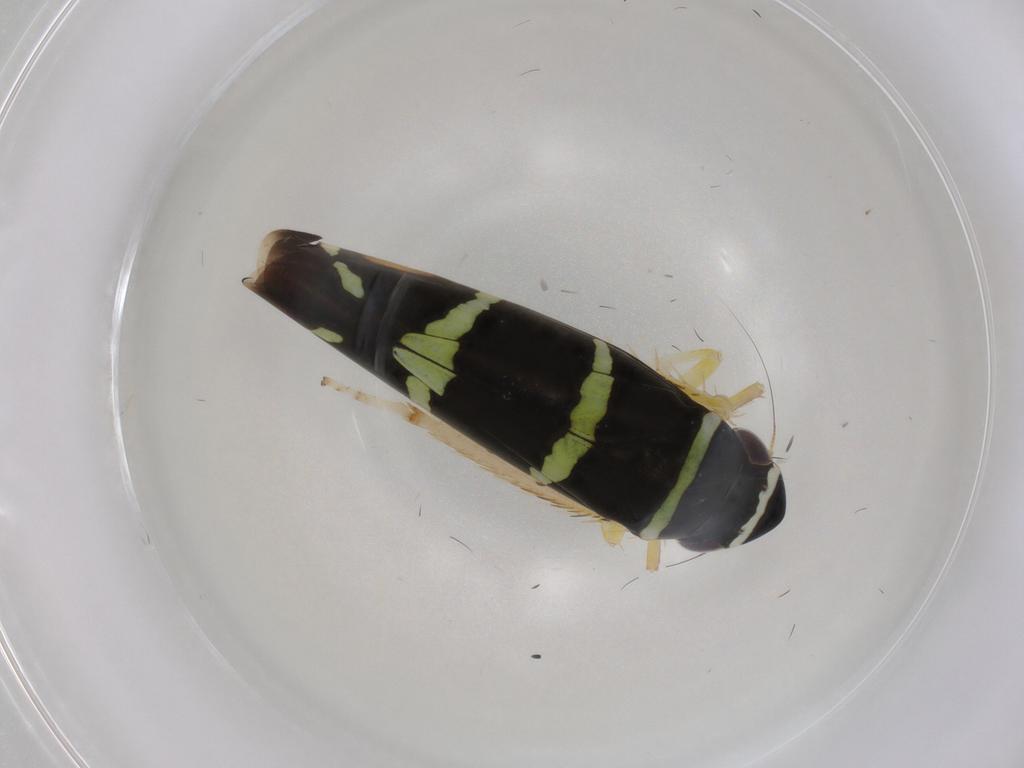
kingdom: Animalia
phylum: Arthropoda
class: Insecta
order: Hemiptera
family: Cicadellidae
